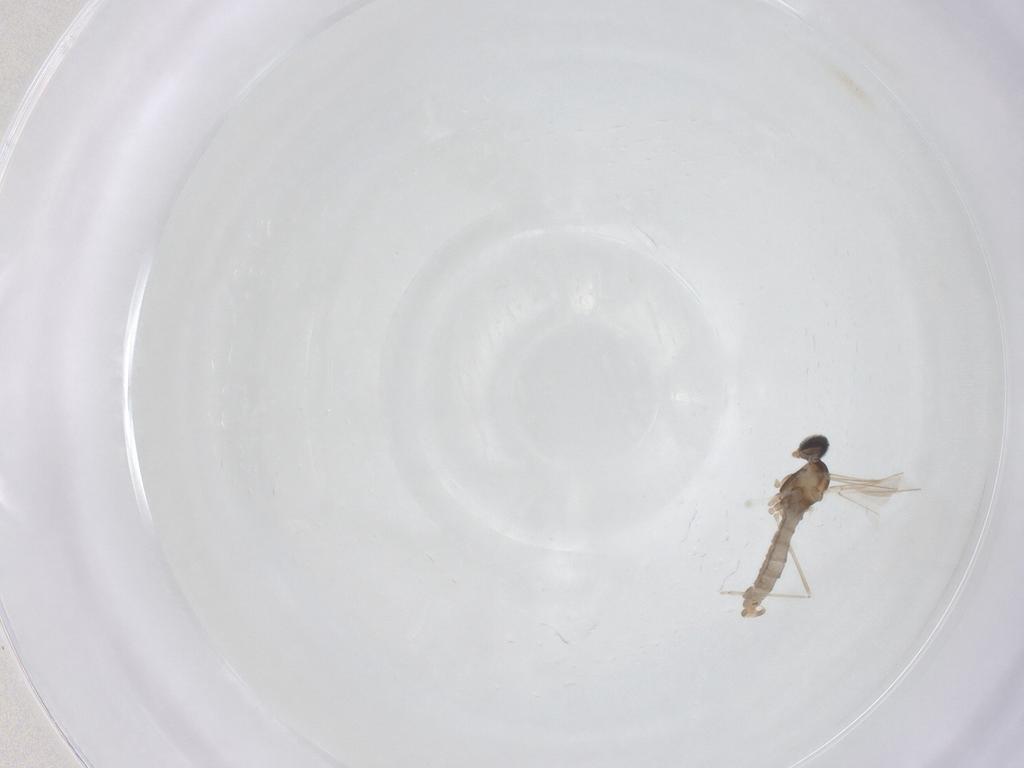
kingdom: Animalia
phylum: Arthropoda
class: Insecta
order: Diptera
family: Cecidomyiidae
